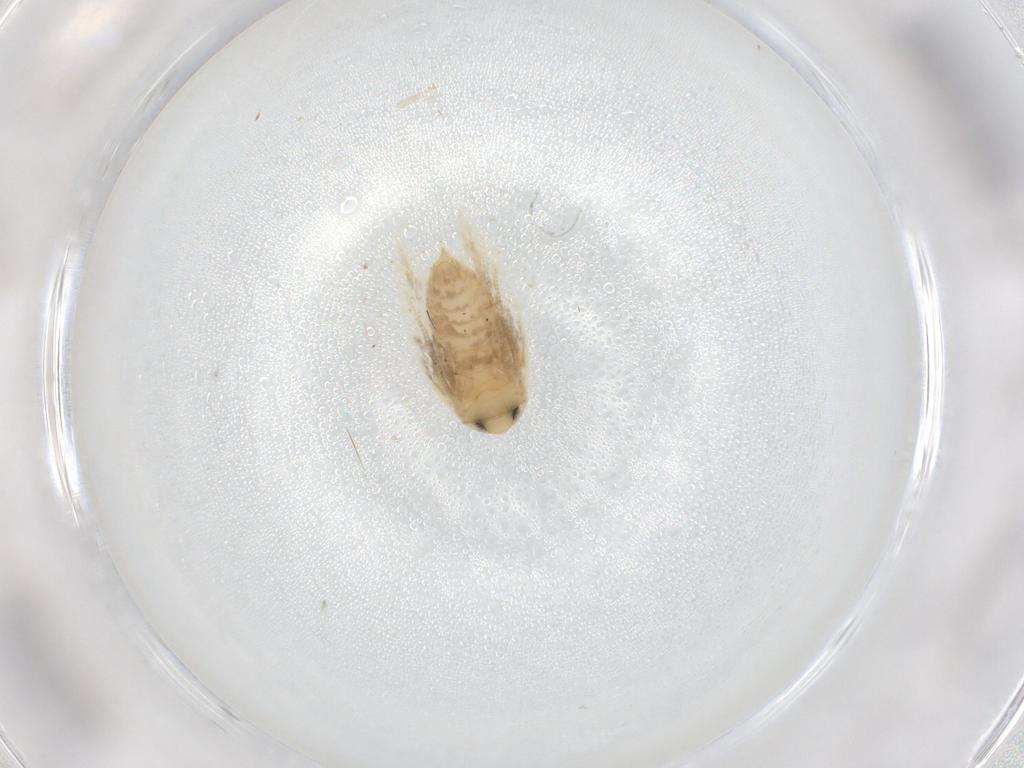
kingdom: Animalia
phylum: Arthropoda
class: Insecta
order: Lepidoptera
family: Opostegidae
